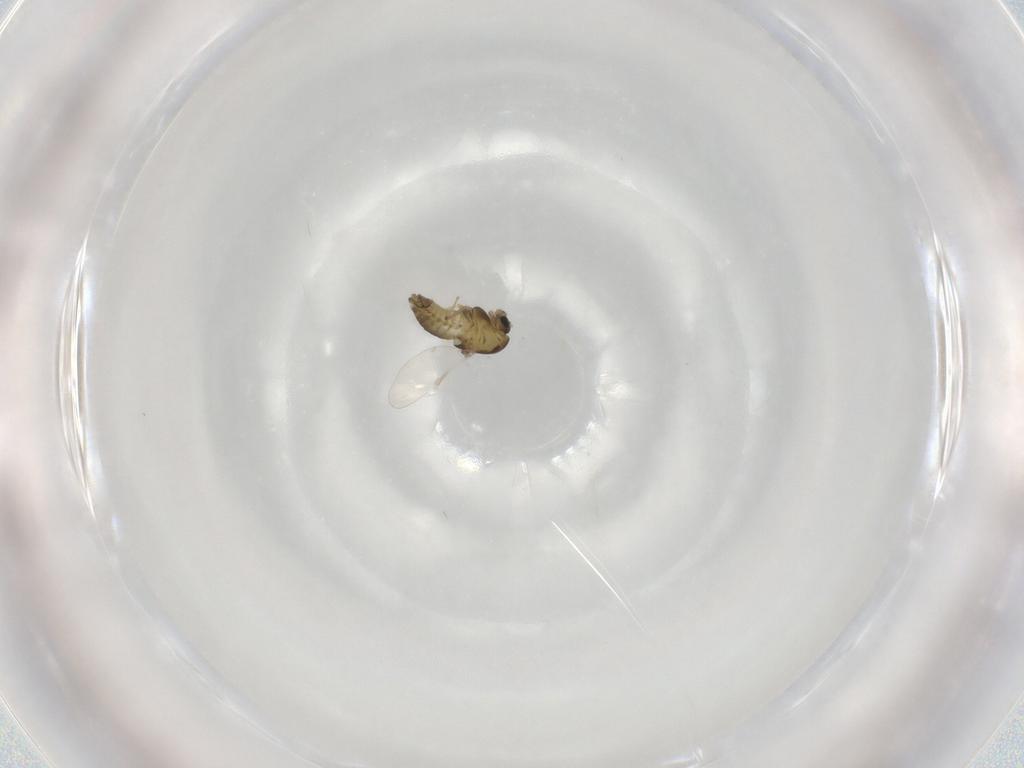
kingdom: Animalia
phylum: Arthropoda
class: Insecta
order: Diptera
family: Chironomidae
